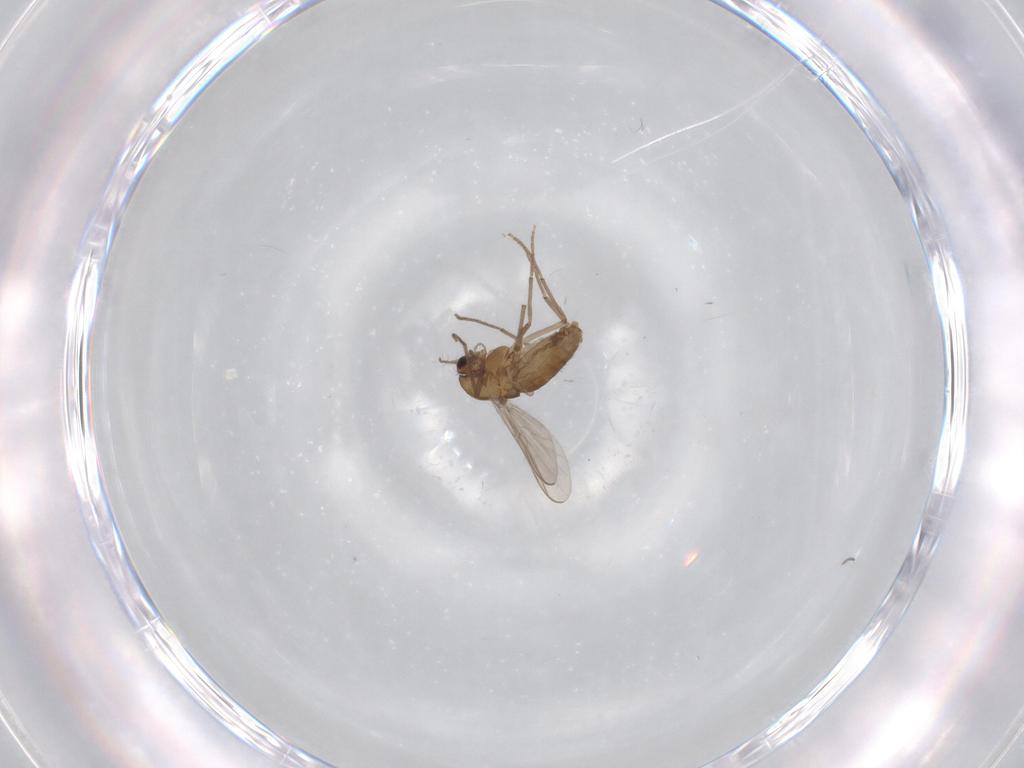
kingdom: Animalia
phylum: Arthropoda
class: Insecta
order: Diptera
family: Chironomidae
